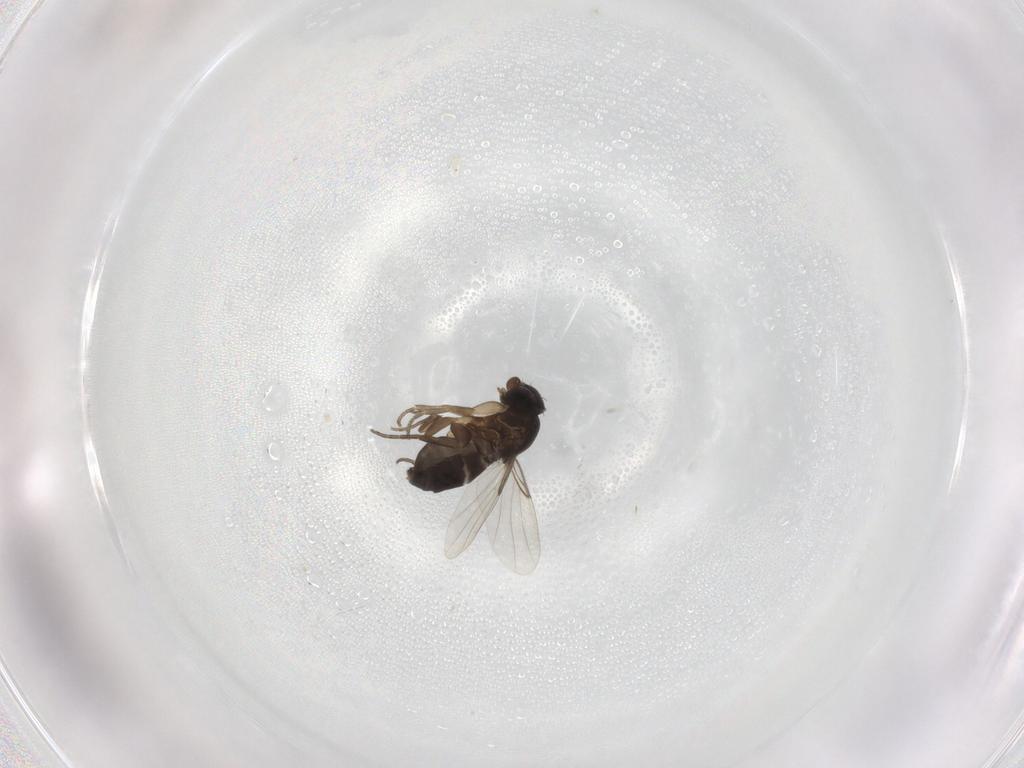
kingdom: Animalia
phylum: Arthropoda
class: Insecta
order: Diptera
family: Phoridae
